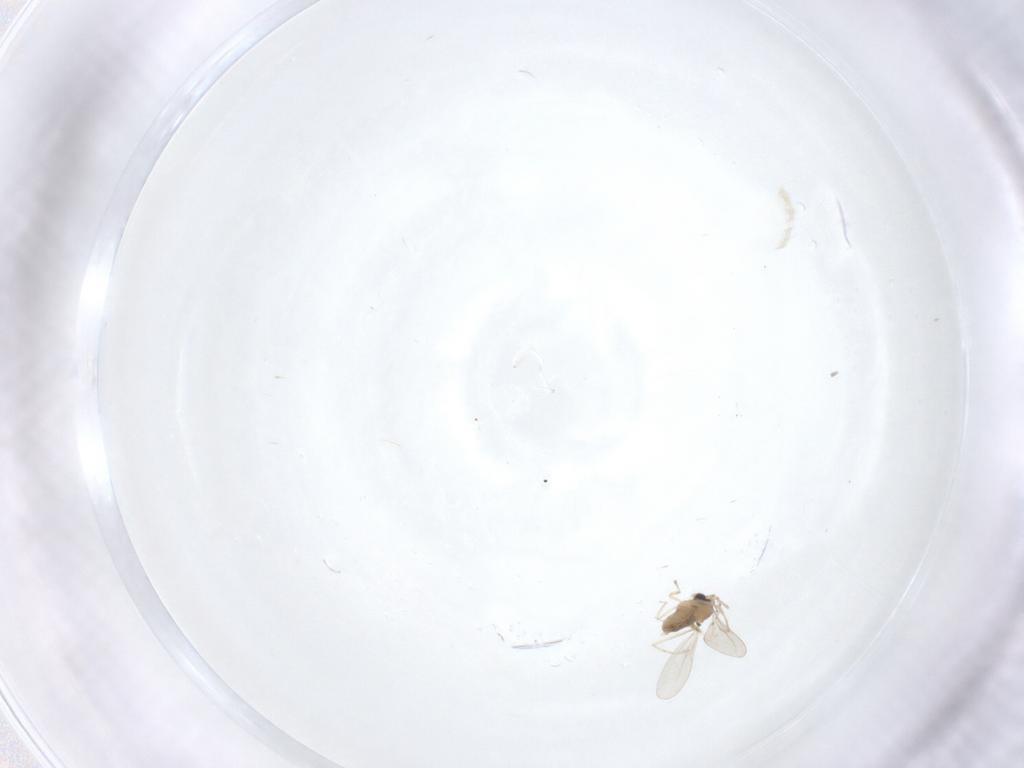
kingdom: Animalia
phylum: Arthropoda
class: Insecta
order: Diptera
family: Cecidomyiidae
